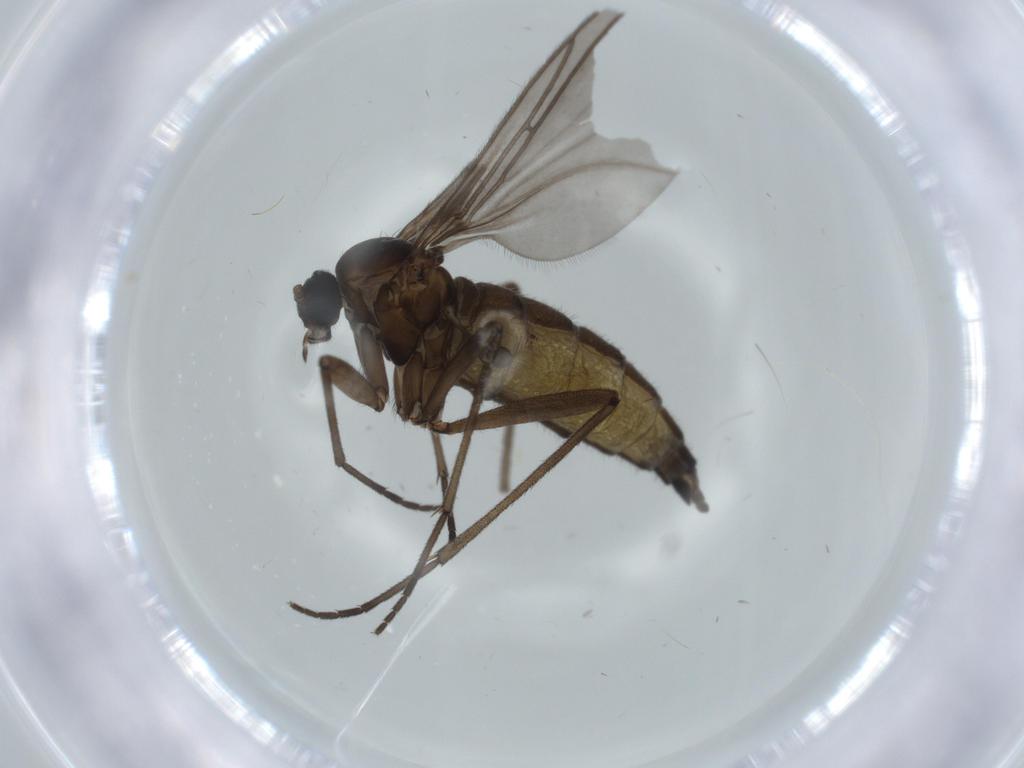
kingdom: Animalia
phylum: Arthropoda
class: Insecta
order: Diptera
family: Sciaridae
